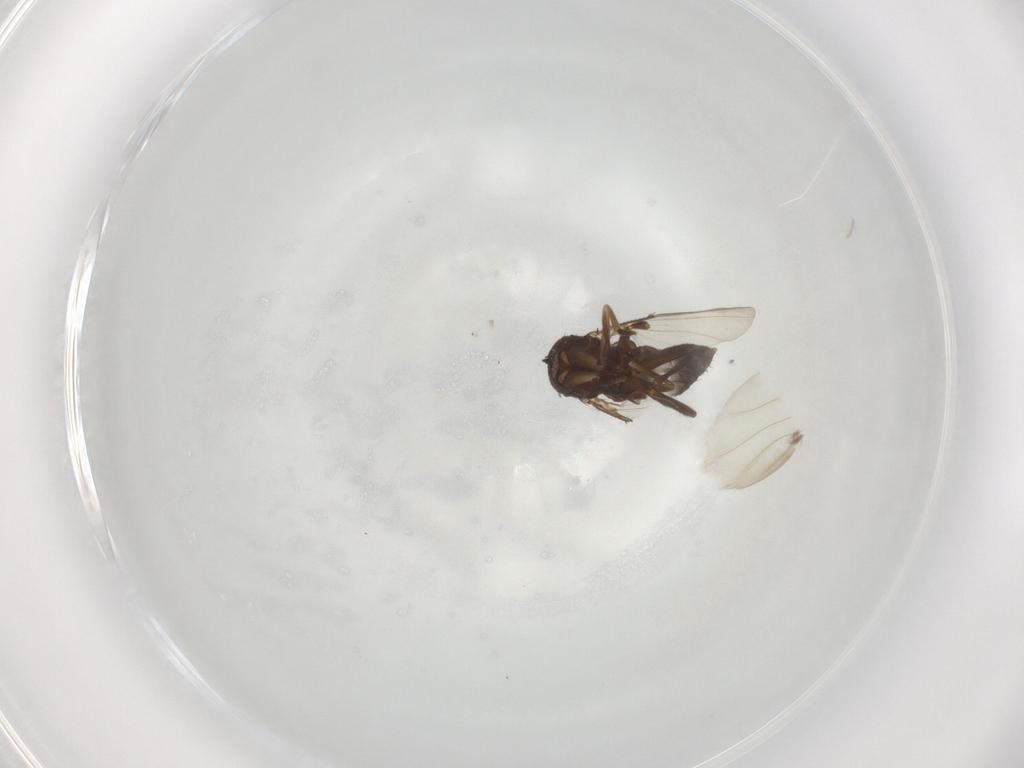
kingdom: Animalia
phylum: Arthropoda
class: Insecta
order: Diptera
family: Phoridae
